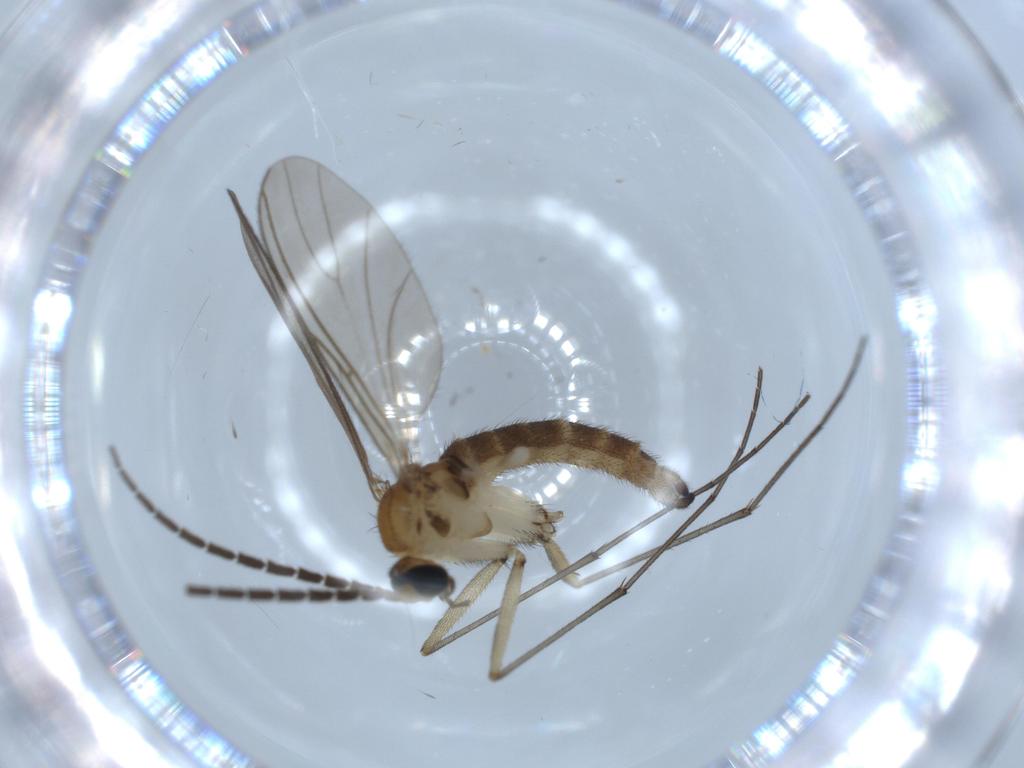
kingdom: Animalia
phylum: Arthropoda
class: Insecta
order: Diptera
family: Sciaridae
